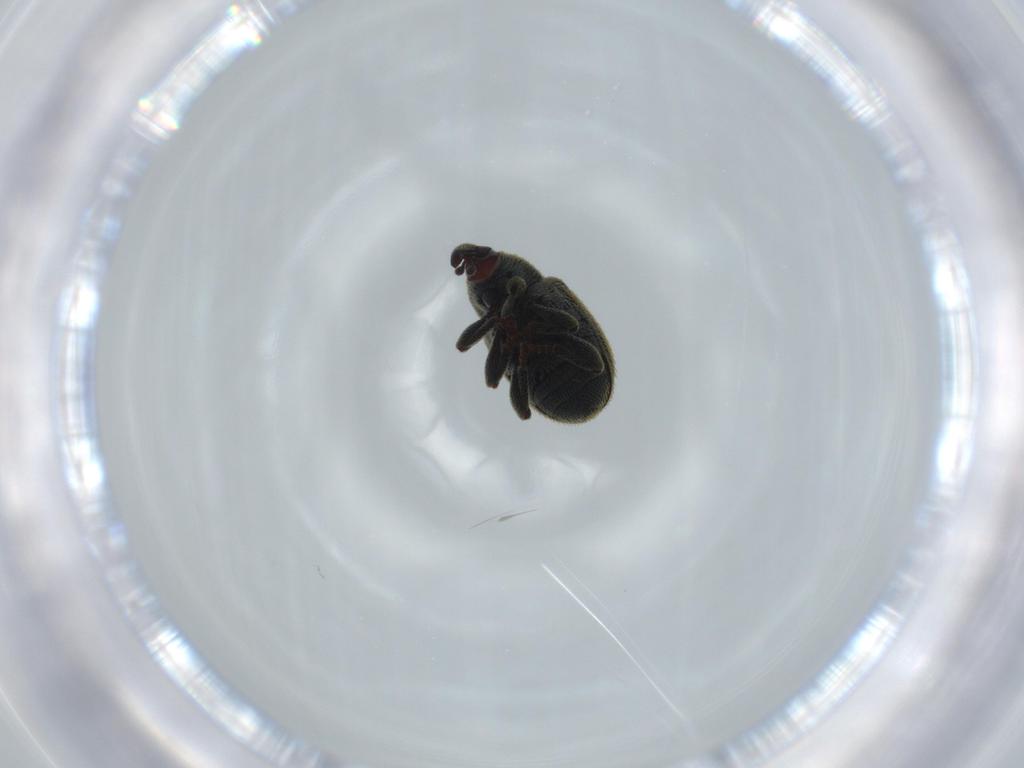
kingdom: Animalia
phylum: Arthropoda
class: Insecta
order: Coleoptera
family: Curculionidae
